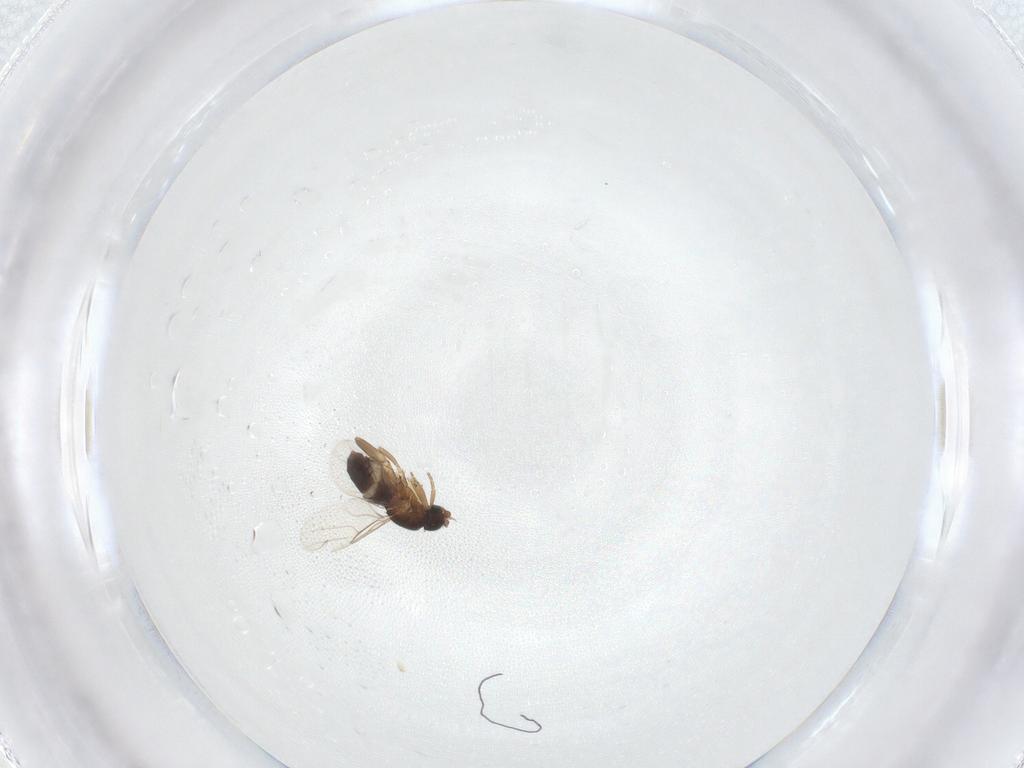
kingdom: Animalia
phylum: Arthropoda
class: Insecta
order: Diptera
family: Phoridae
